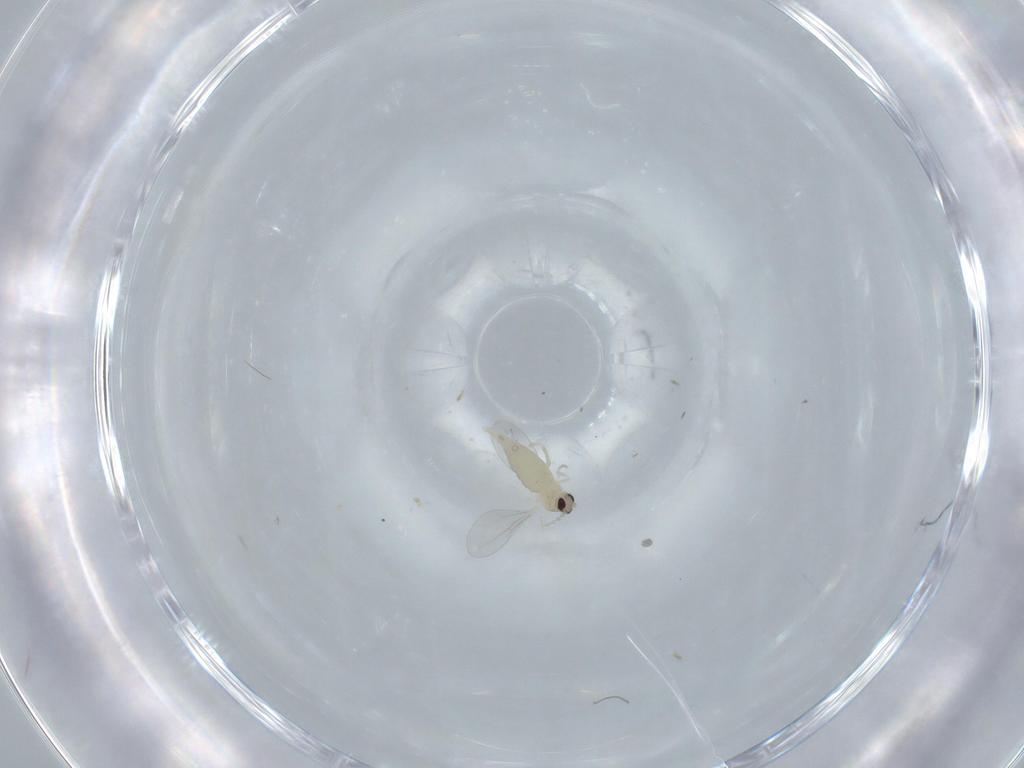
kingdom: Animalia
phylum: Arthropoda
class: Insecta
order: Diptera
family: Cecidomyiidae
